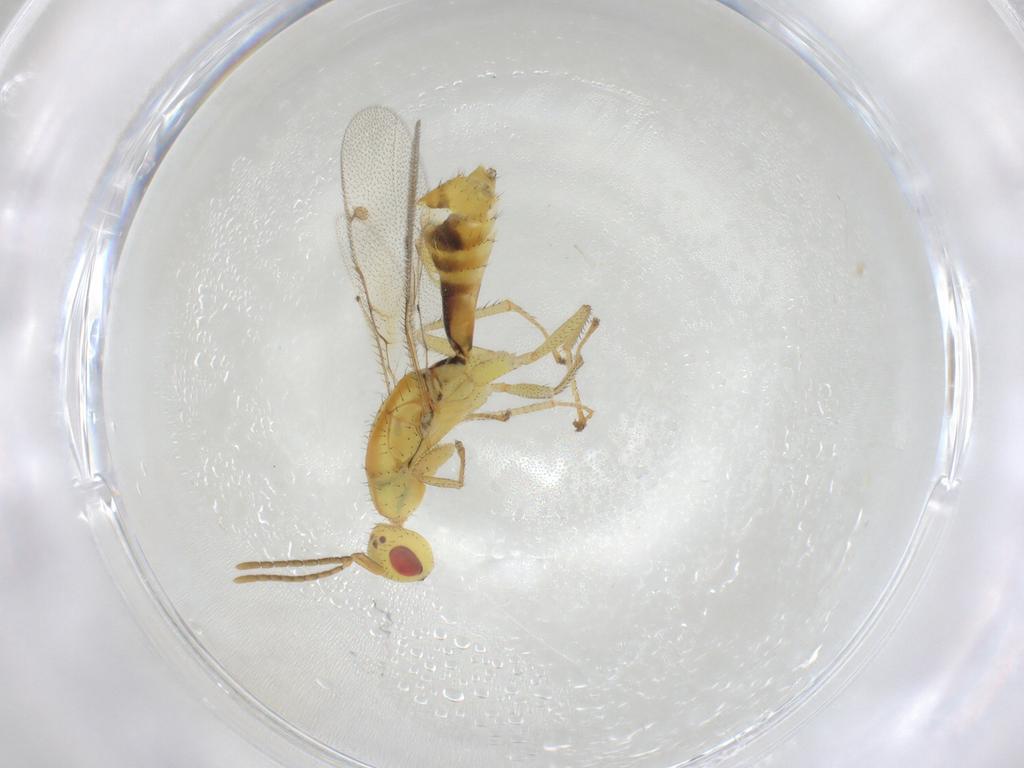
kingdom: Animalia
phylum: Arthropoda
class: Insecta
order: Hymenoptera
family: Megastigmidae
